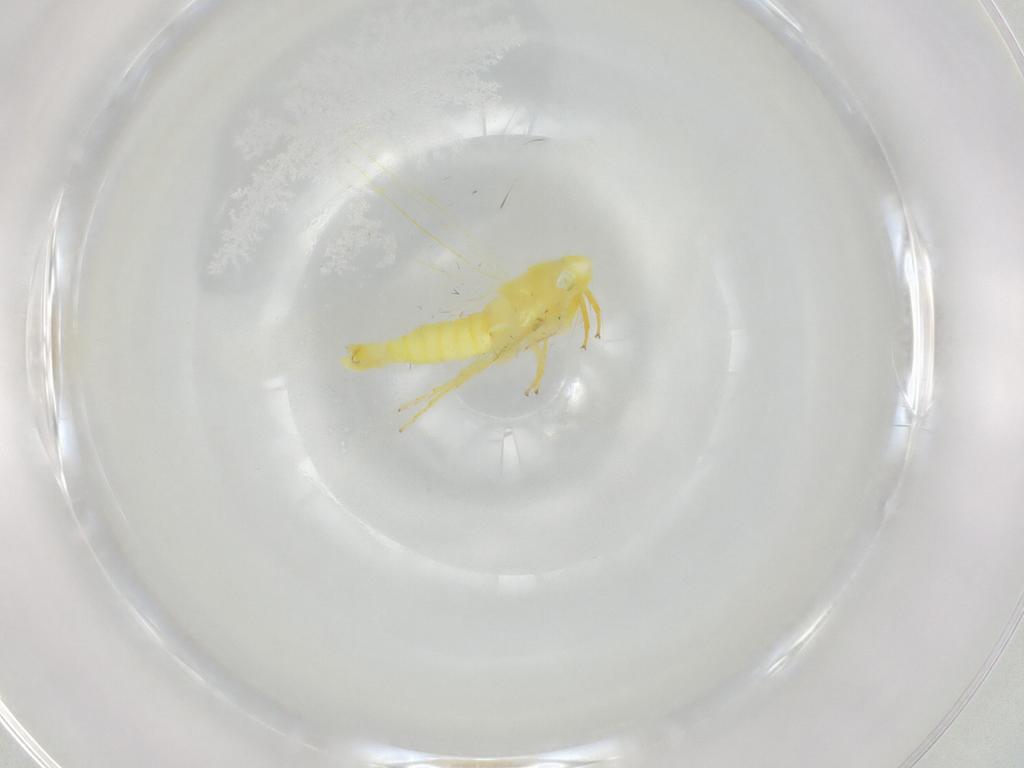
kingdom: Animalia
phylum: Arthropoda
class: Insecta
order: Hemiptera
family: Cicadellidae
